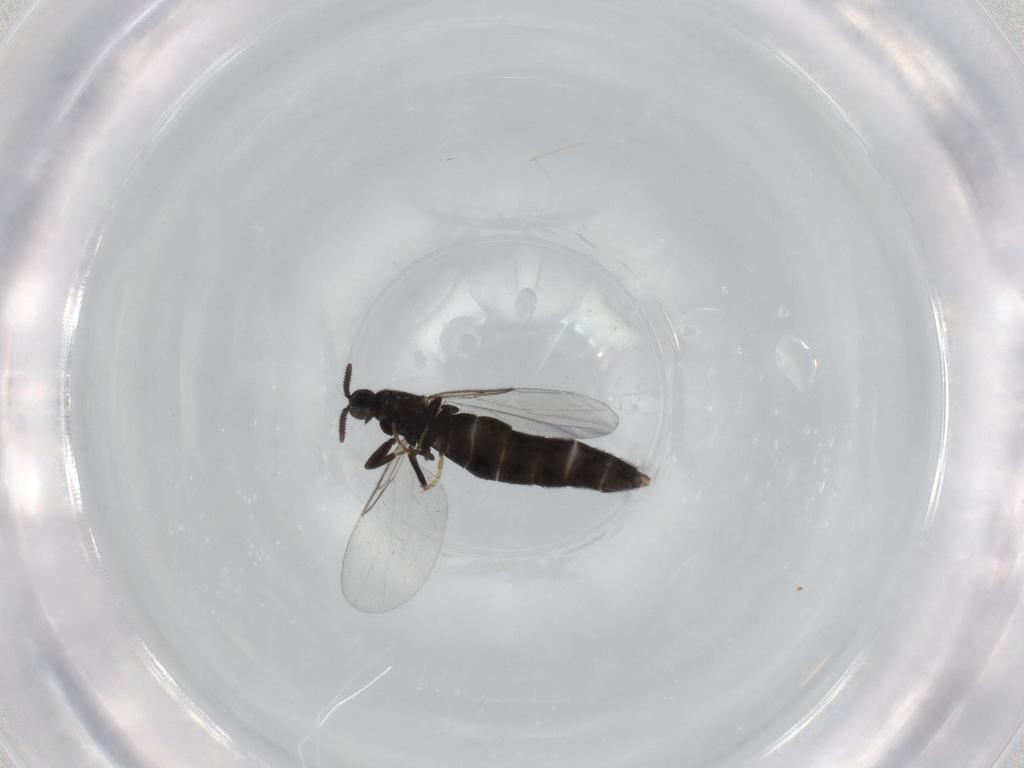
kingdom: Animalia
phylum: Arthropoda
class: Insecta
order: Diptera
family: Scatopsidae
